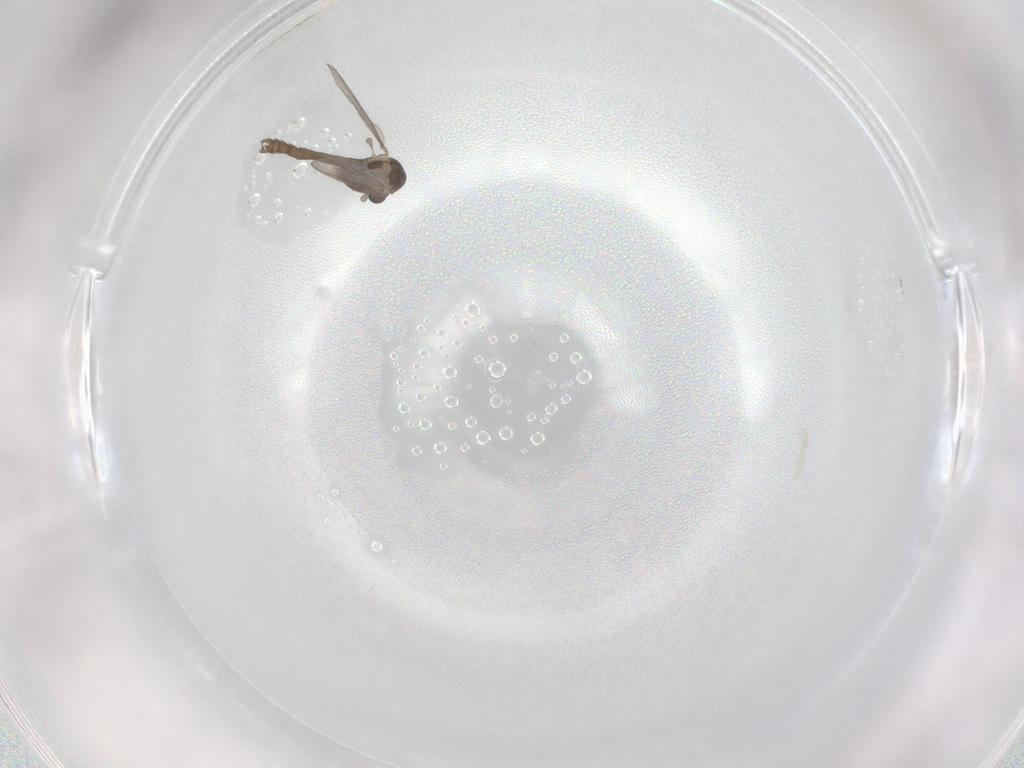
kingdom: Animalia
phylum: Arthropoda
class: Insecta
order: Diptera
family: Chironomidae
